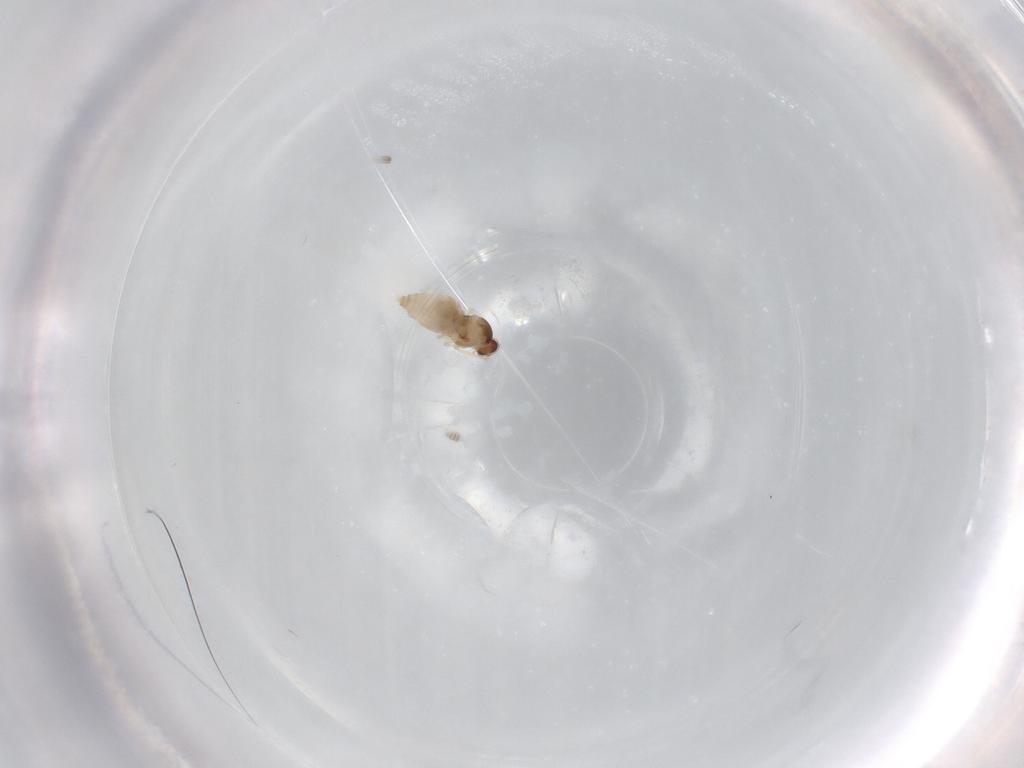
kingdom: Animalia
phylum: Arthropoda
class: Insecta
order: Diptera
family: Cecidomyiidae
